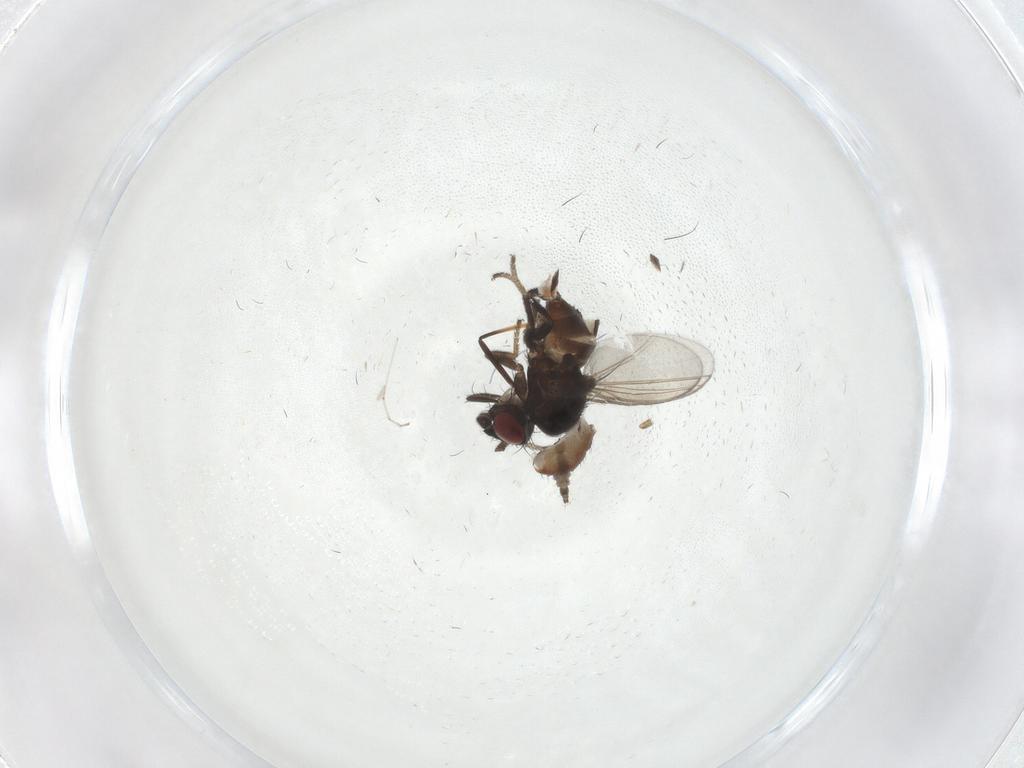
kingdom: Animalia
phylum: Arthropoda
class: Insecta
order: Diptera
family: Milichiidae
